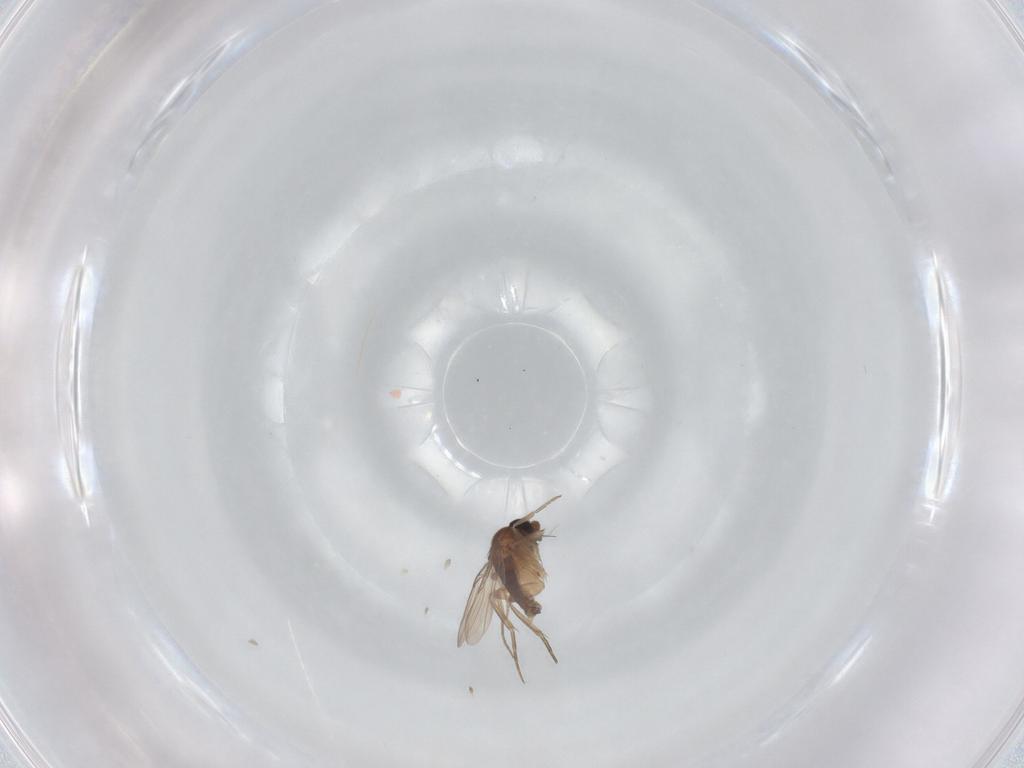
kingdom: Animalia
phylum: Arthropoda
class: Insecta
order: Diptera
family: Phoridae
